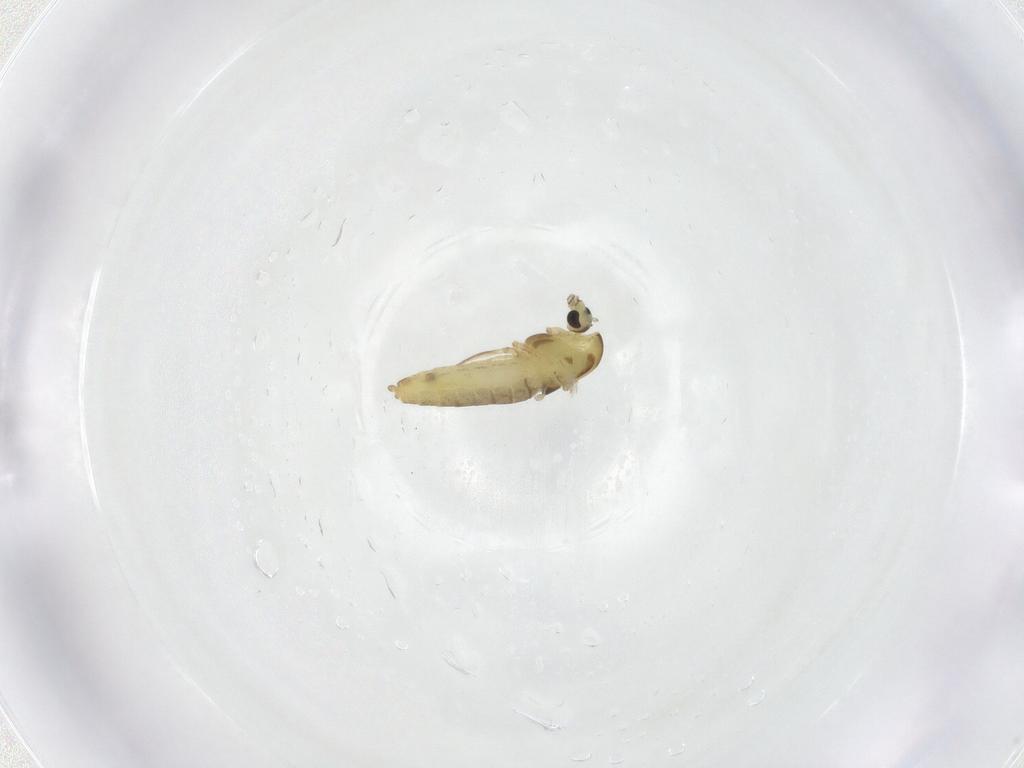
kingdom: Animalia
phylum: Arthropoda
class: Insecta
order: Diptera
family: Chironomidae
